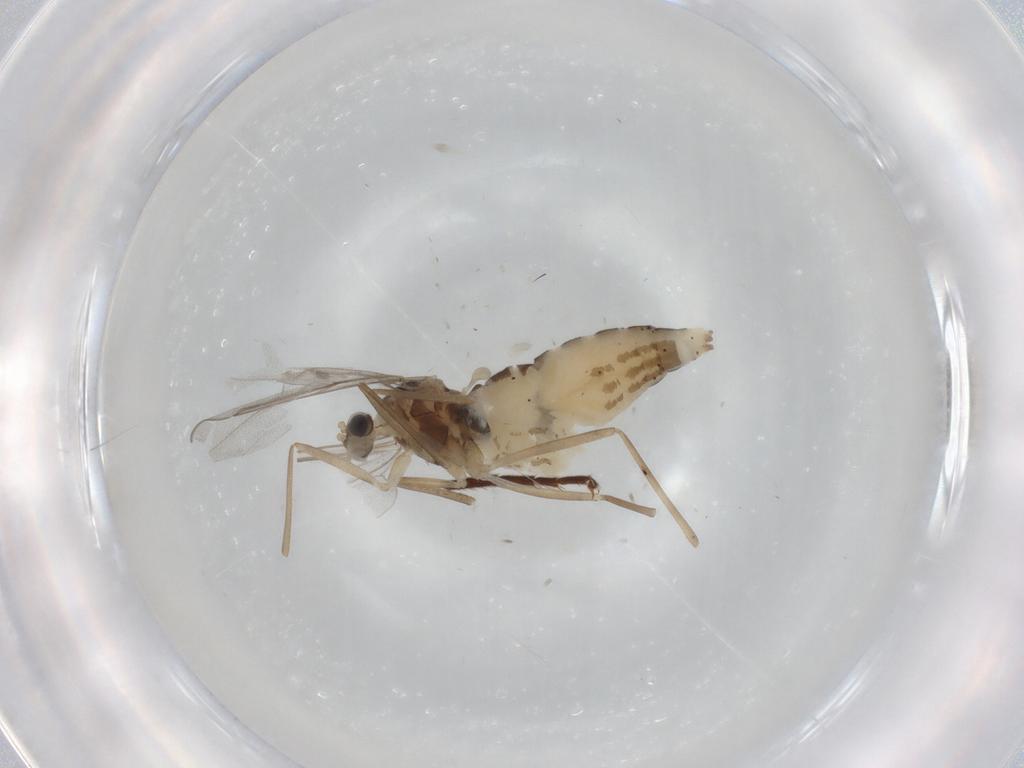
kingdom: Animalia
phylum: Arthropoda
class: Insecta
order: Diptera
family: Cecidomyiidae
